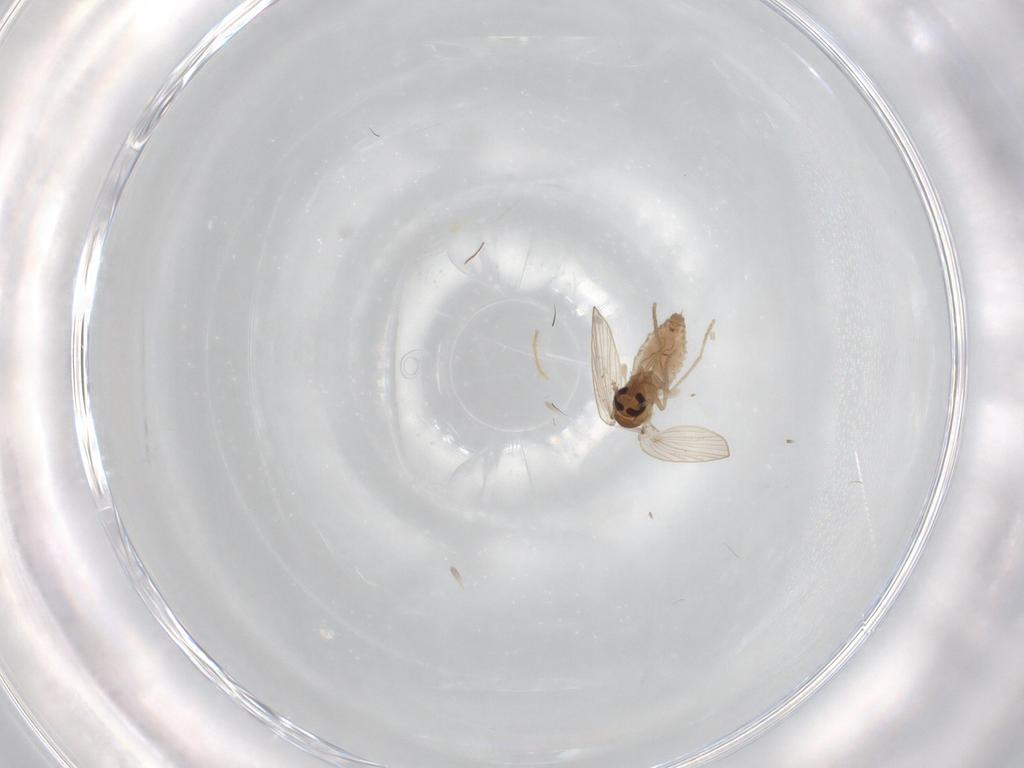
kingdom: Animalia
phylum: Arthropoda
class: Insecta
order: Diptera
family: Psychodidae
